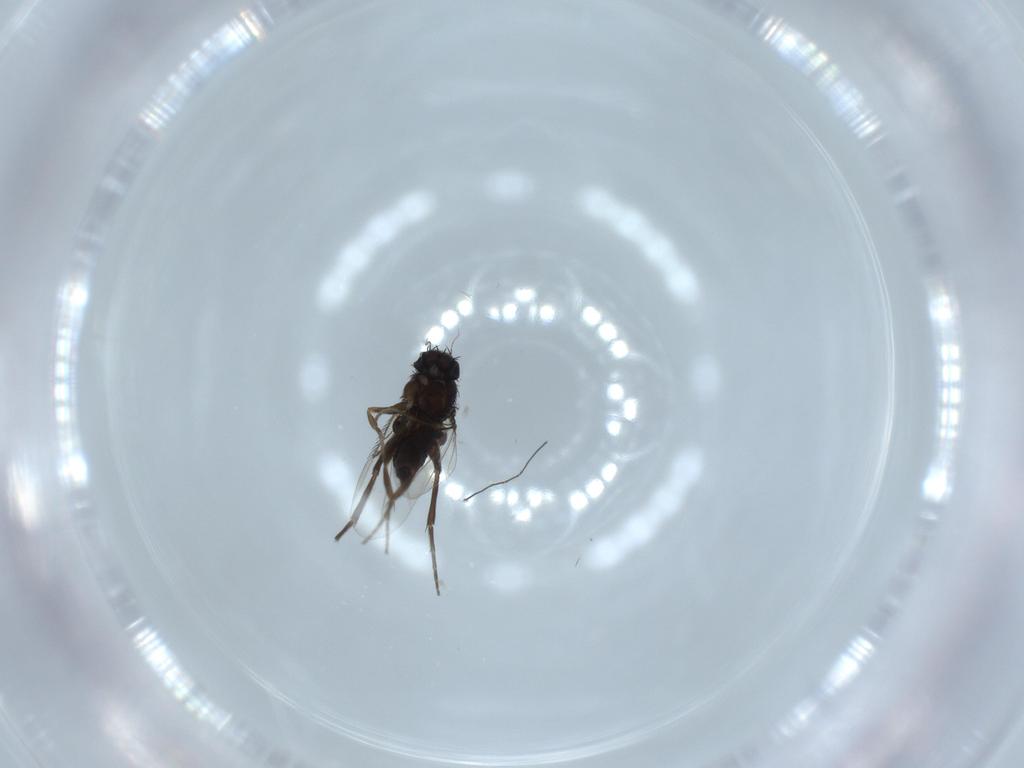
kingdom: Animalia
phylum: Arthropoda
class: Insecta
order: Diptera
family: Phoridae
